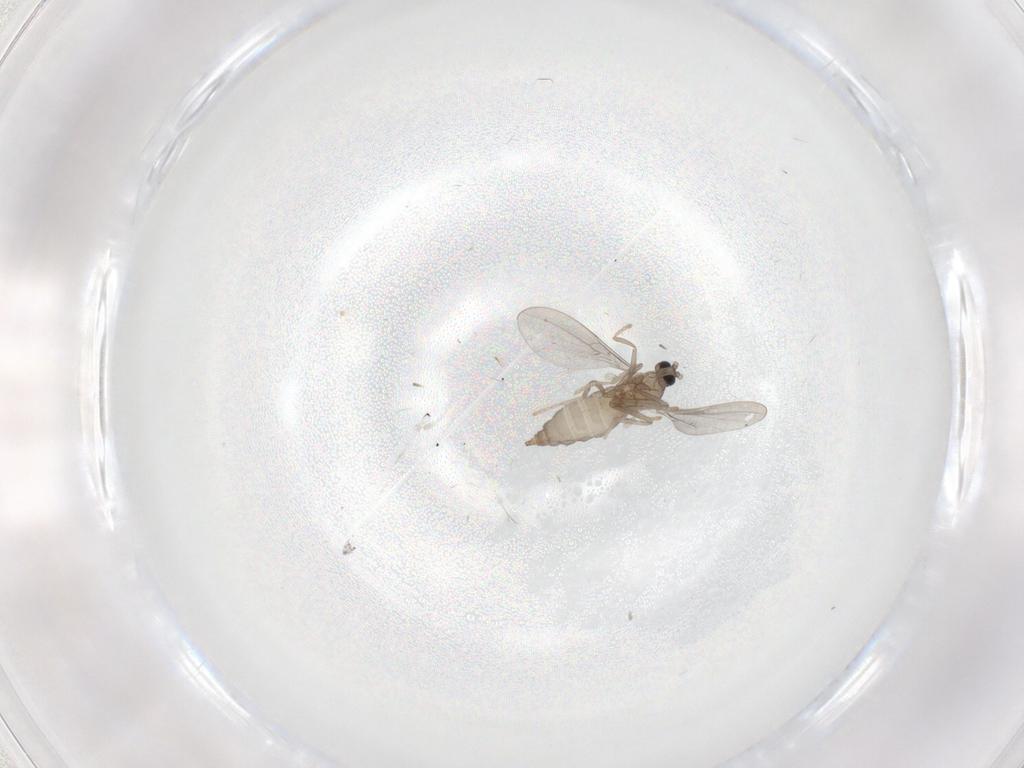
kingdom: Animalia
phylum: Arthropoda
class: Insecta
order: Diptera
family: Cecidomyiidae
